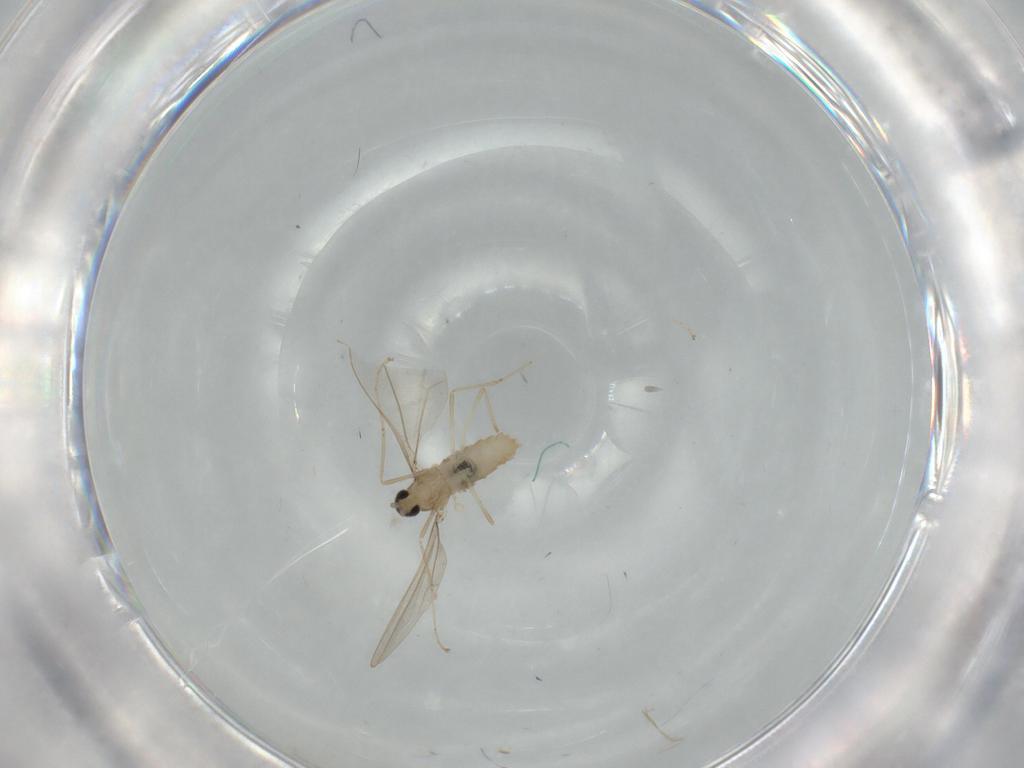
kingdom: Animalia
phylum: Arthropoda
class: Insecta
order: Diptera
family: Cecidomyiidae
